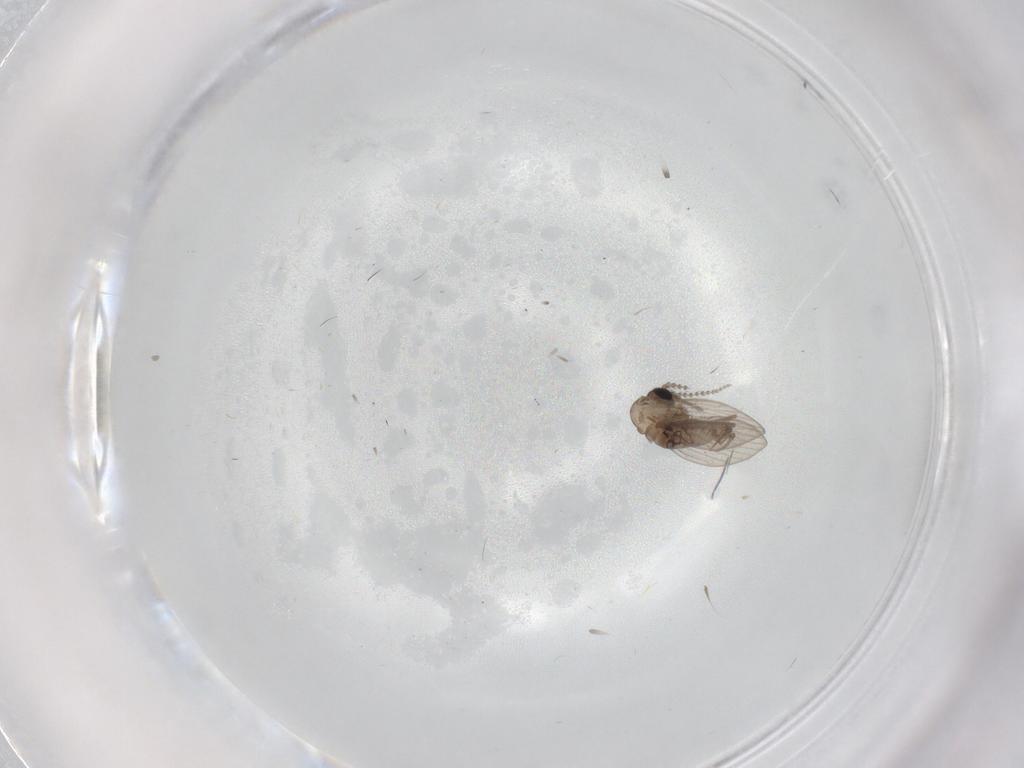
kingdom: Animalia
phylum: Arthropoda
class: Insecta
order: Diptera
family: Psychodidae
